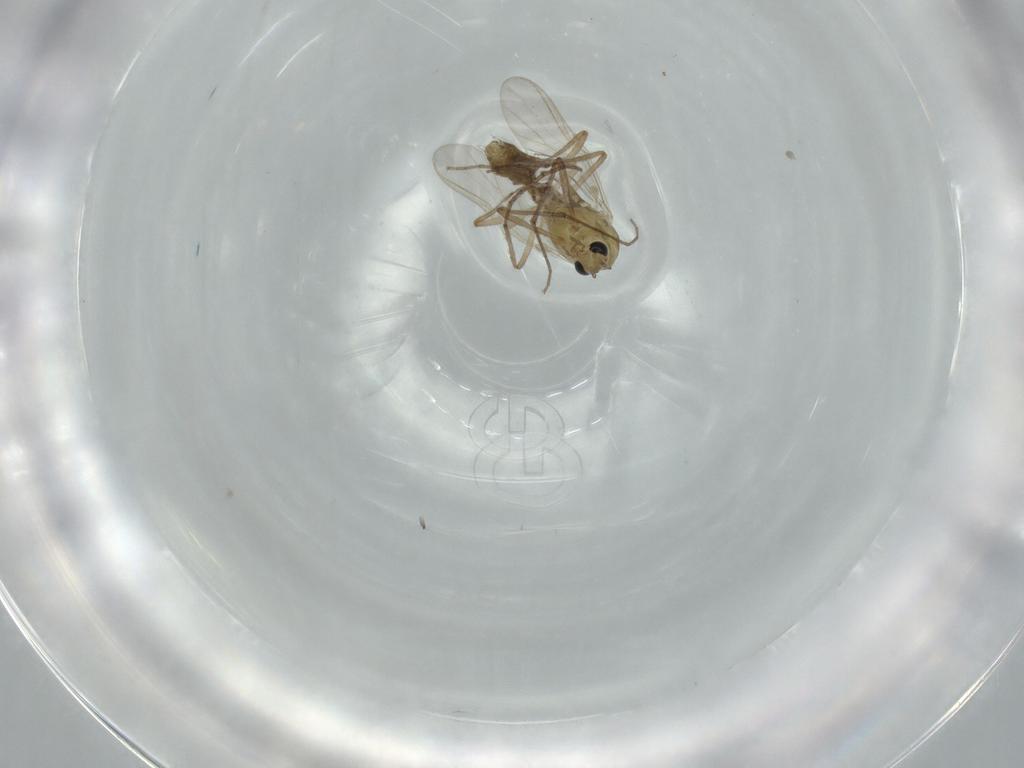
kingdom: Animalia
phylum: Arthropoda
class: Insecta
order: Diptera
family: Chironomidae
